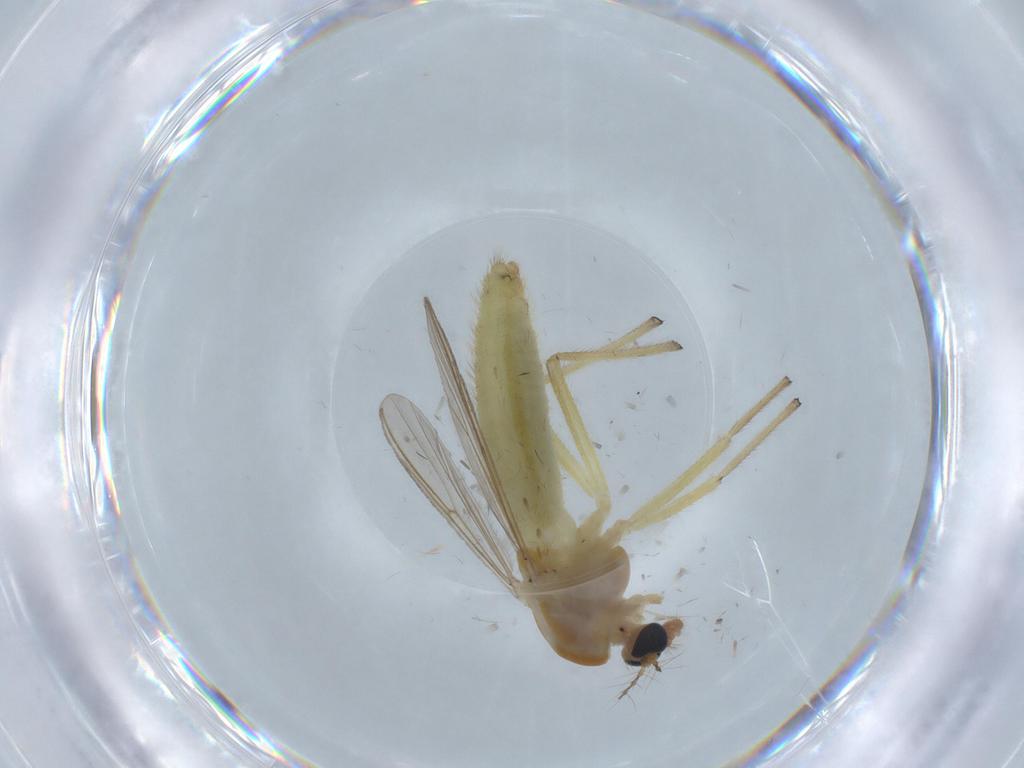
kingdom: Animalia
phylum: Arthropoda
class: Insecta
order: Diptera
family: Chironomidae
